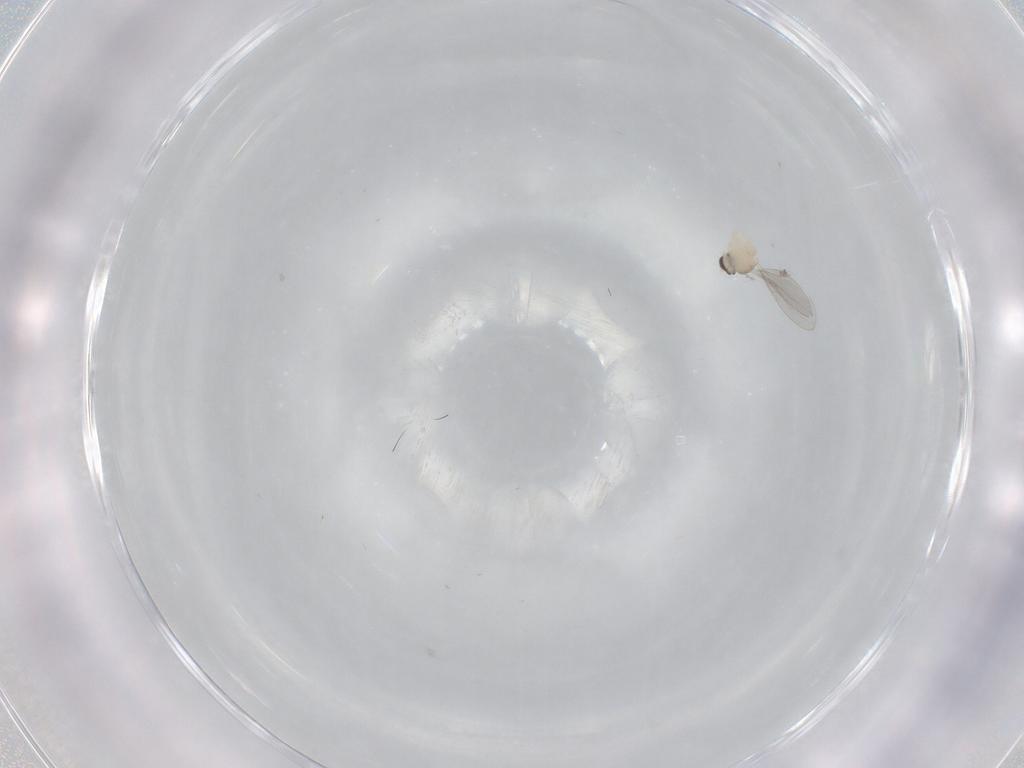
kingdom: Animalia
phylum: Arthropoda
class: Insecta
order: Diptera
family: Cecidomyiidae
